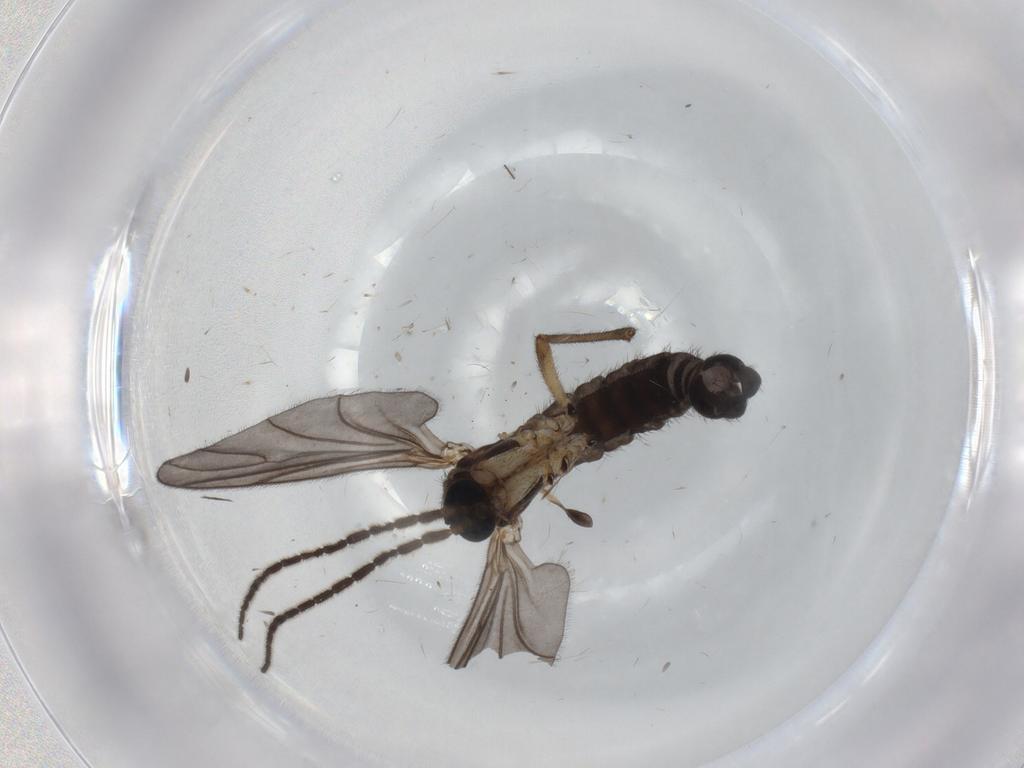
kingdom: Animalia
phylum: Arthropoda
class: Insecta
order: Diptera
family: Sciaridae
